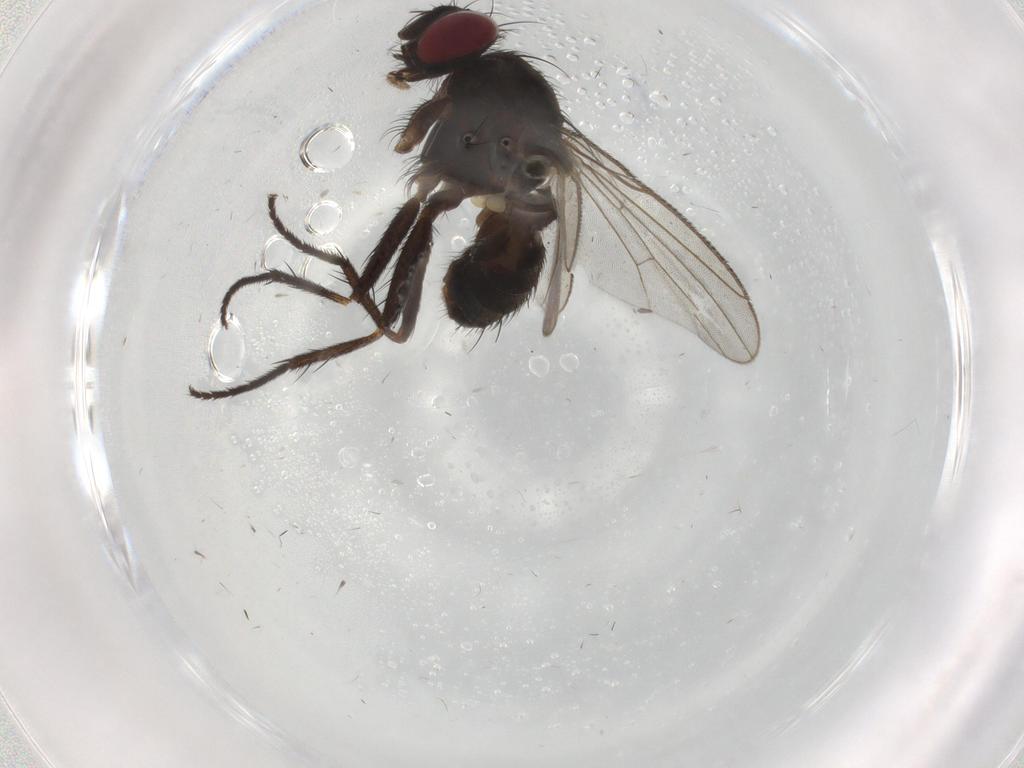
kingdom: Animalia
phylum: Arthropoda
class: Insecta
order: Diptera
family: Muscidae
